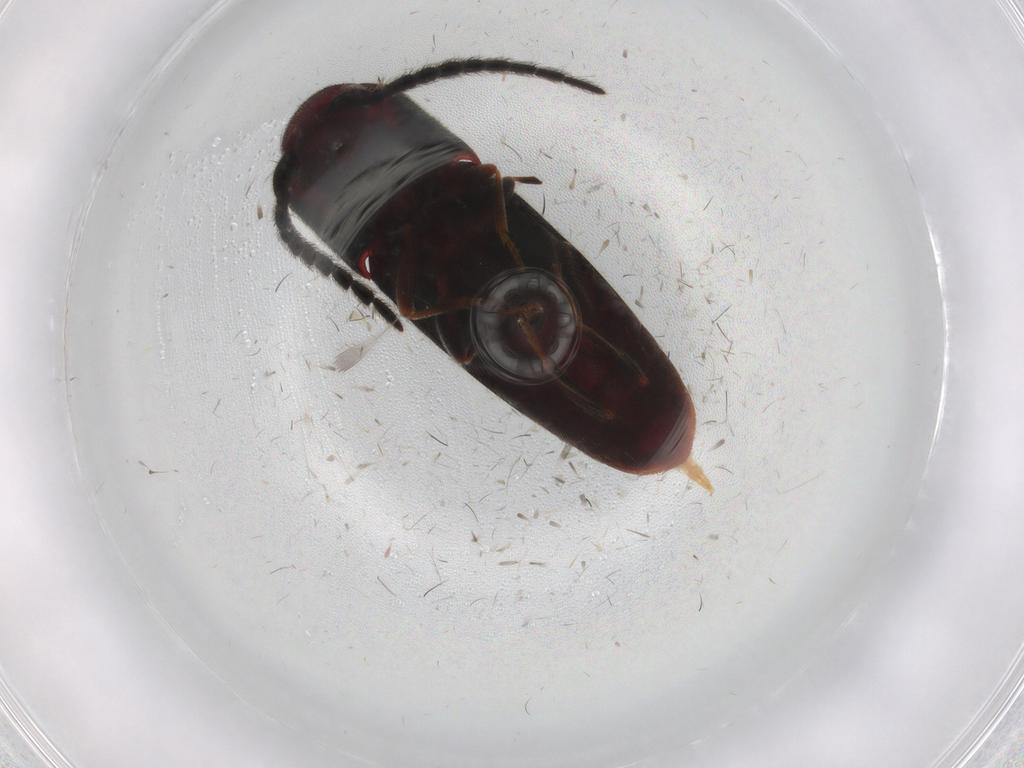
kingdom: Animalia
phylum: Arthropoda
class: Insecta
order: Coleoptera
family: Eucnemidae
